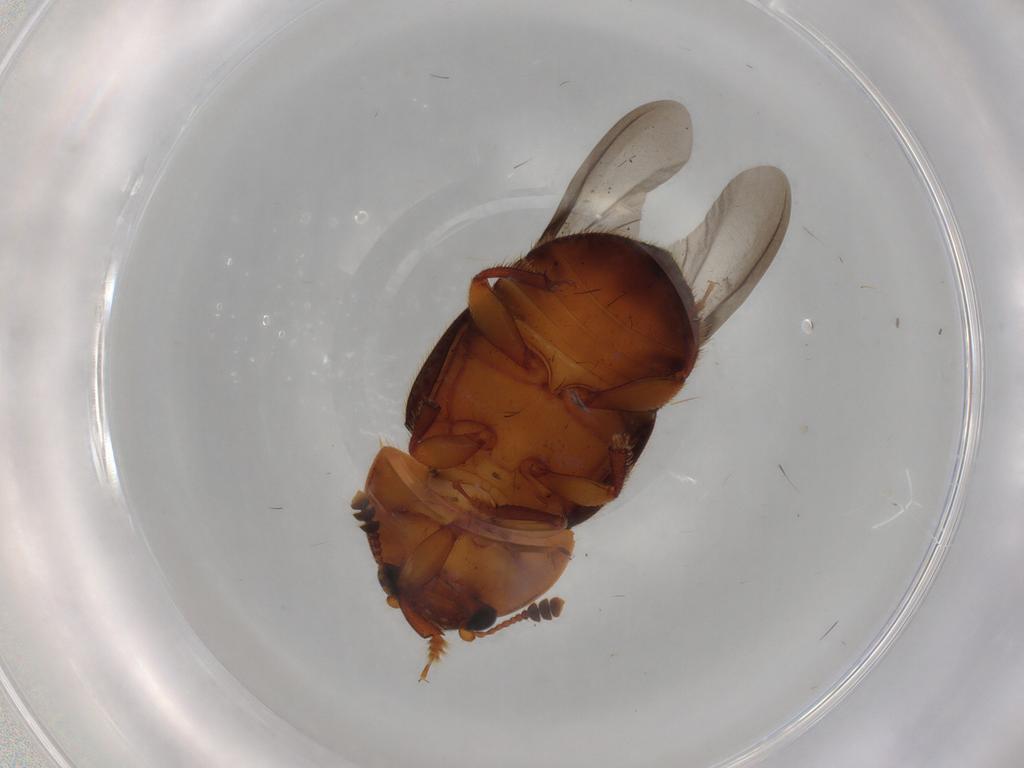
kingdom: Animalia
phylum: Arthropoda
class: Insecta
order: Coleoptera
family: Nitidulidae
